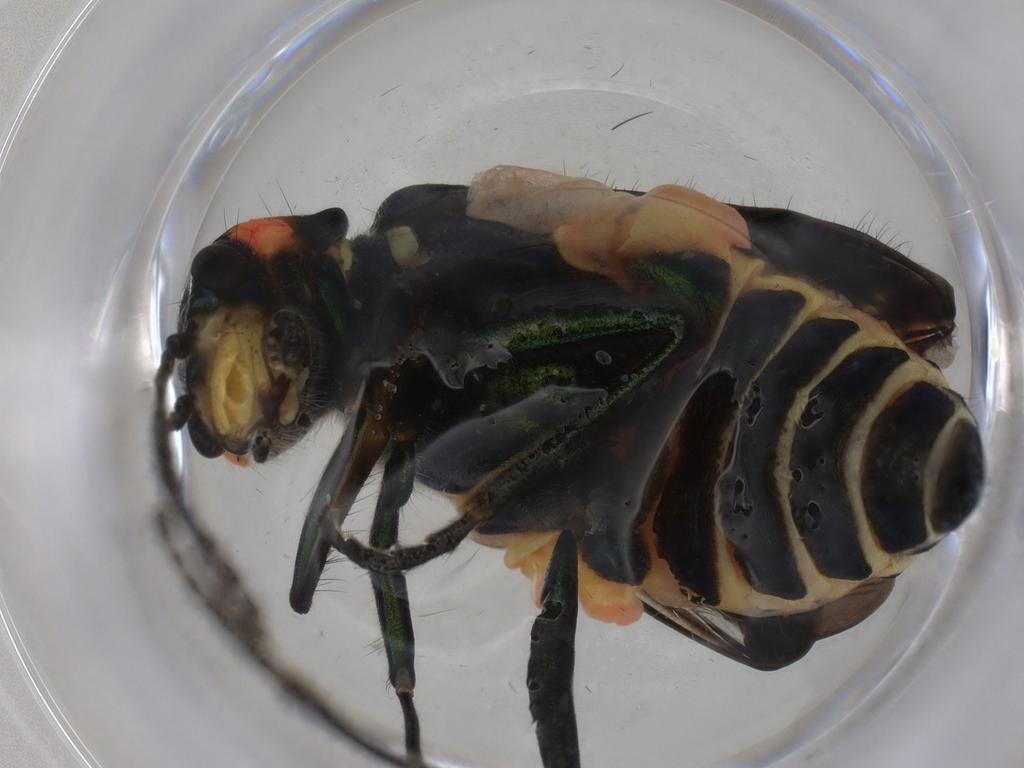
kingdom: Animalia
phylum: Arthropoda
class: Insecta
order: Coleoptera
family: Melyridae
